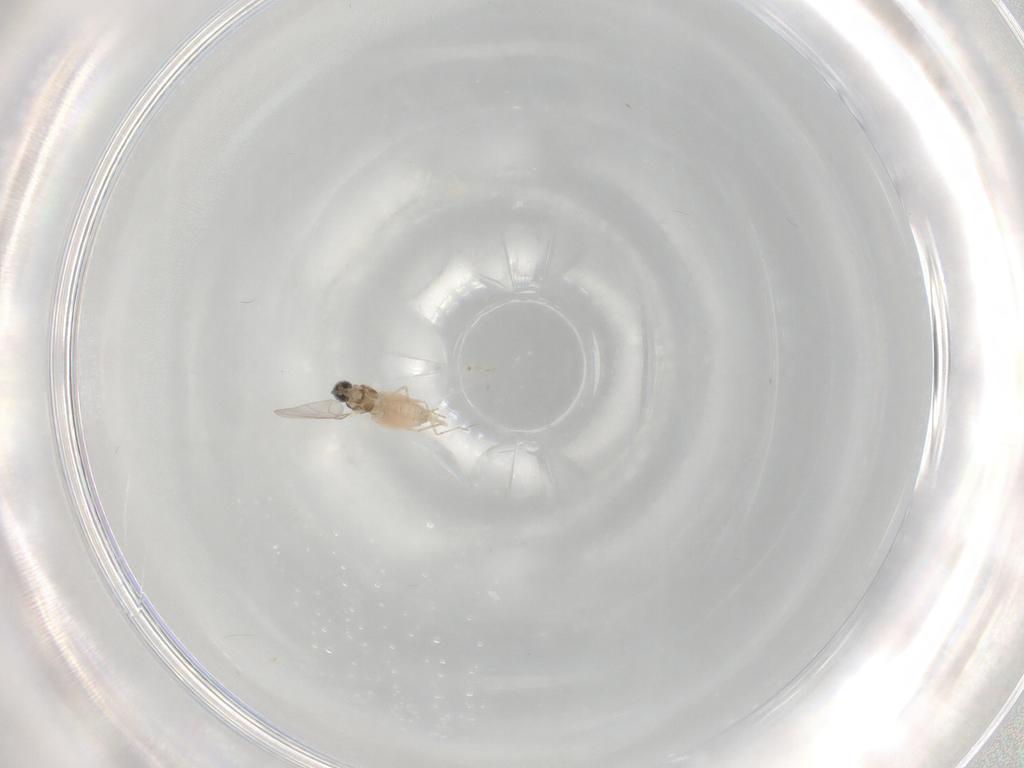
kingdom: Animalia
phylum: Arthropoda
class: Insecta
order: Diptera
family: Cecidomyiidae
